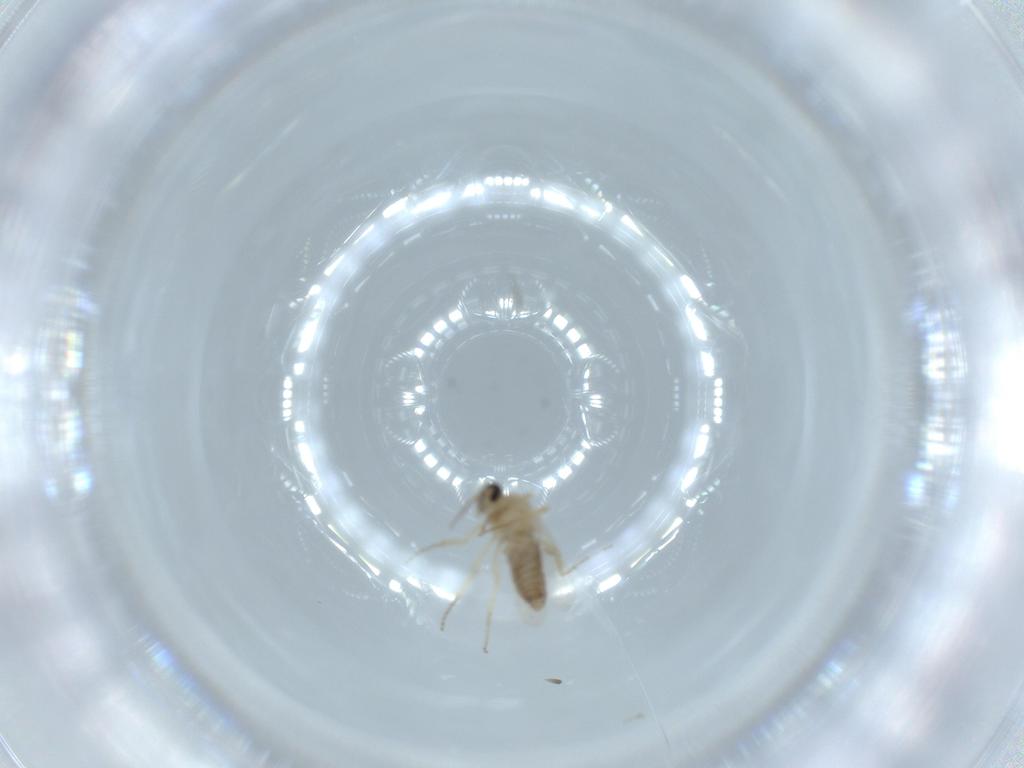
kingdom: Animalia
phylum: Arthropoda
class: Insecta
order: Diptera
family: Ceratopogonidae
